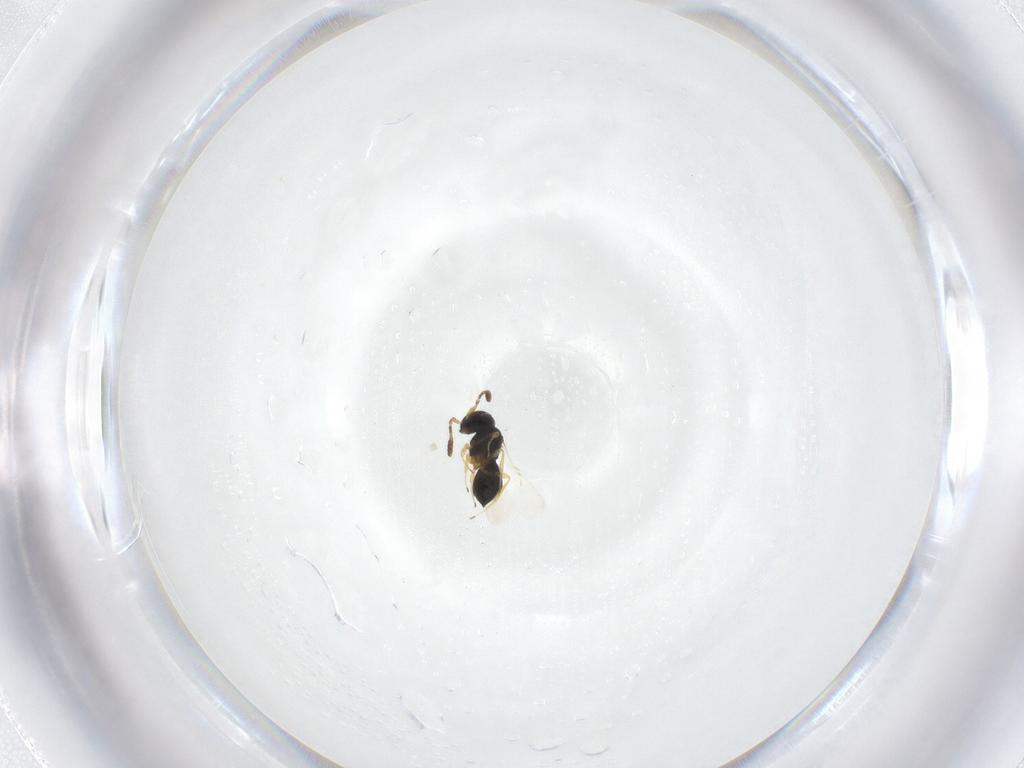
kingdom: Animalia
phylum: Arthropoda
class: Insecta
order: Hymenoptera
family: Scelionidae
